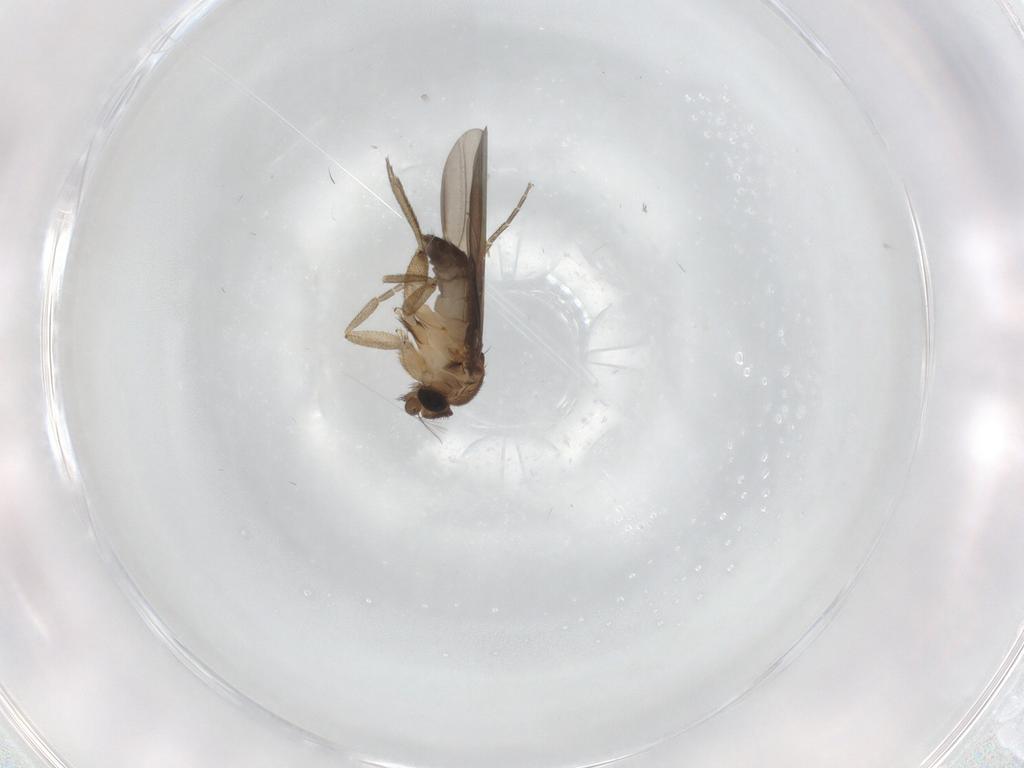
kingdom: Animalia
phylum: Arthropoda
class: Insecta
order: Diptera
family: Phoridae
